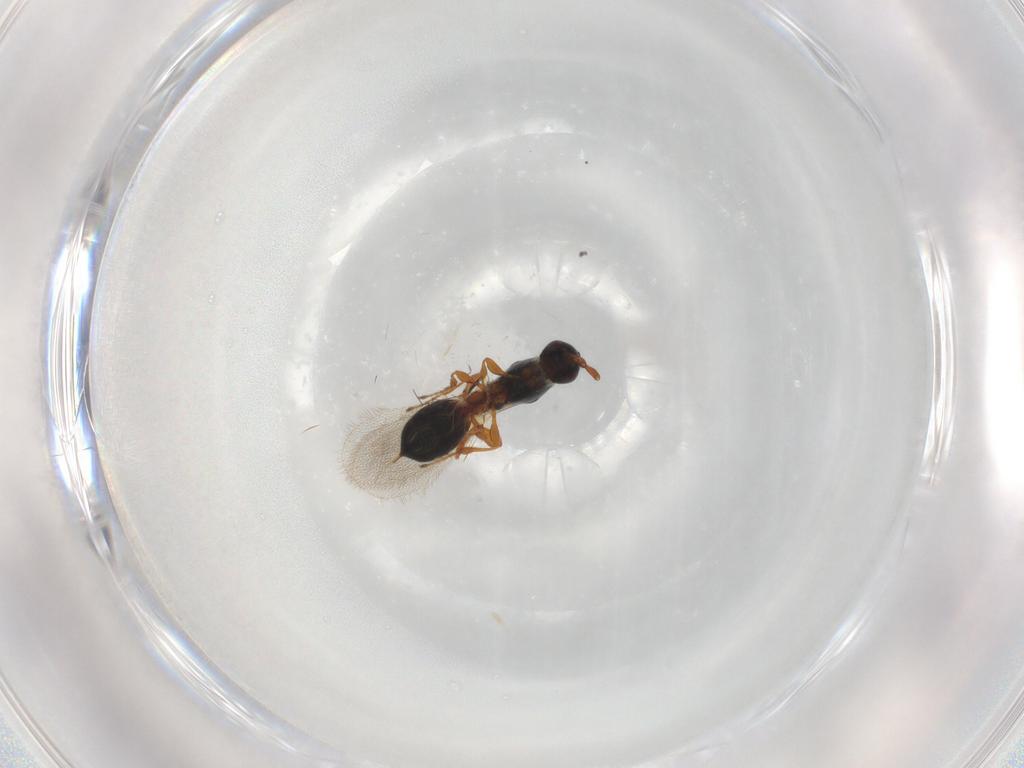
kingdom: Animalia
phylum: Arthropoda
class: Insecta
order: Hymenoptera
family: Diapriidae
